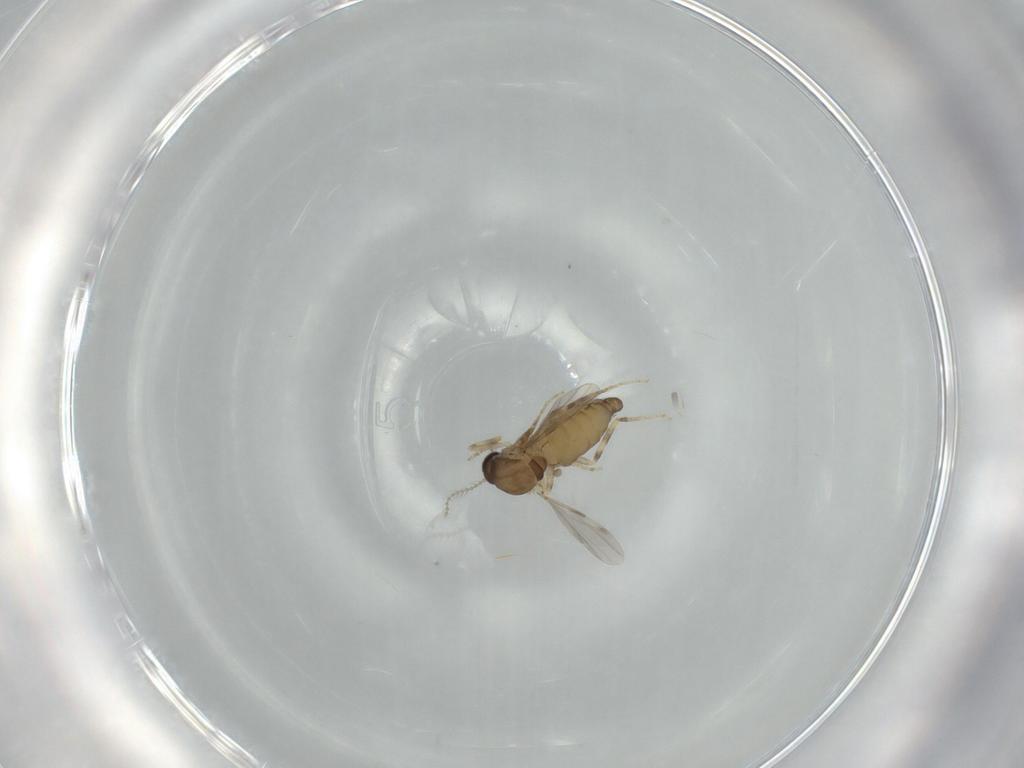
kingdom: Animalia
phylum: Arthropoda
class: Insecta
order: Diptera
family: Ceratopogonidae
